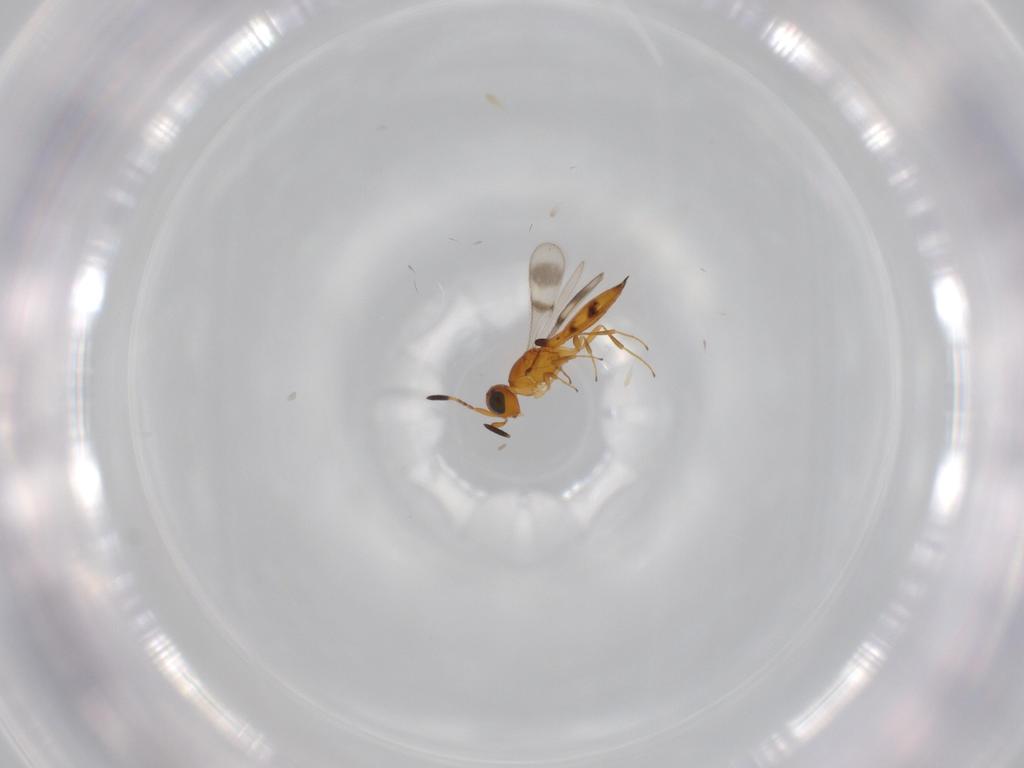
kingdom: Animalia
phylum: Arthropoda
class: Insecta
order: Hymenoptera
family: Scelionidae
